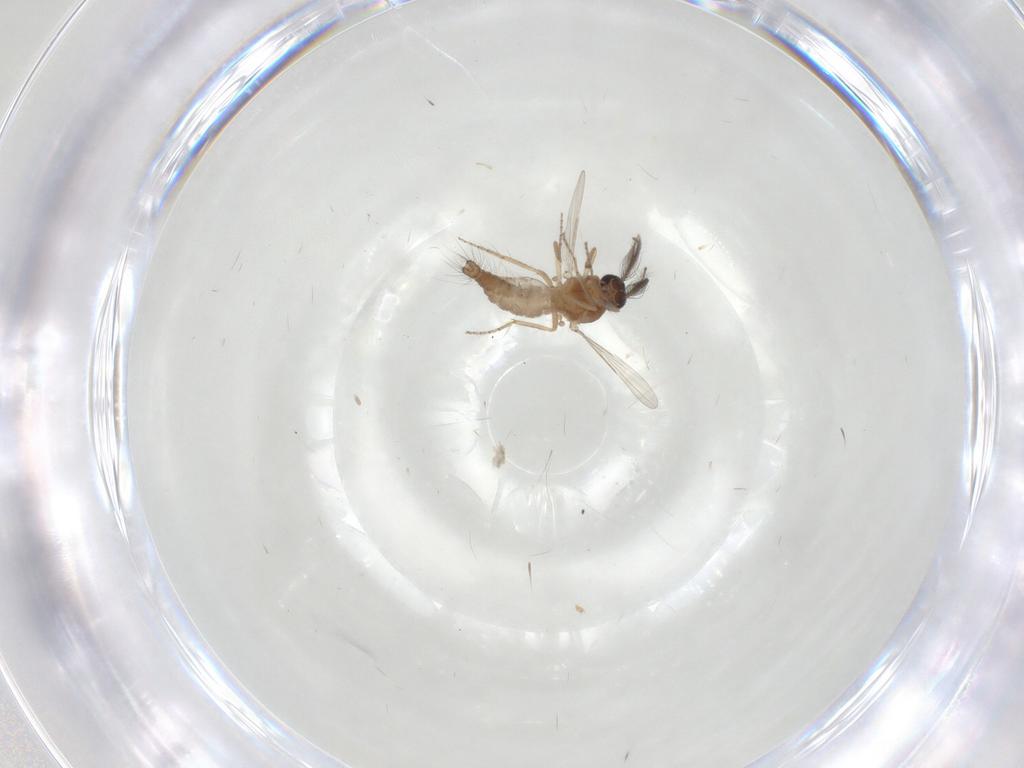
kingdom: Animalia
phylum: Arthropoda
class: Insecta
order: Diptera
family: Ceratopogonidae
